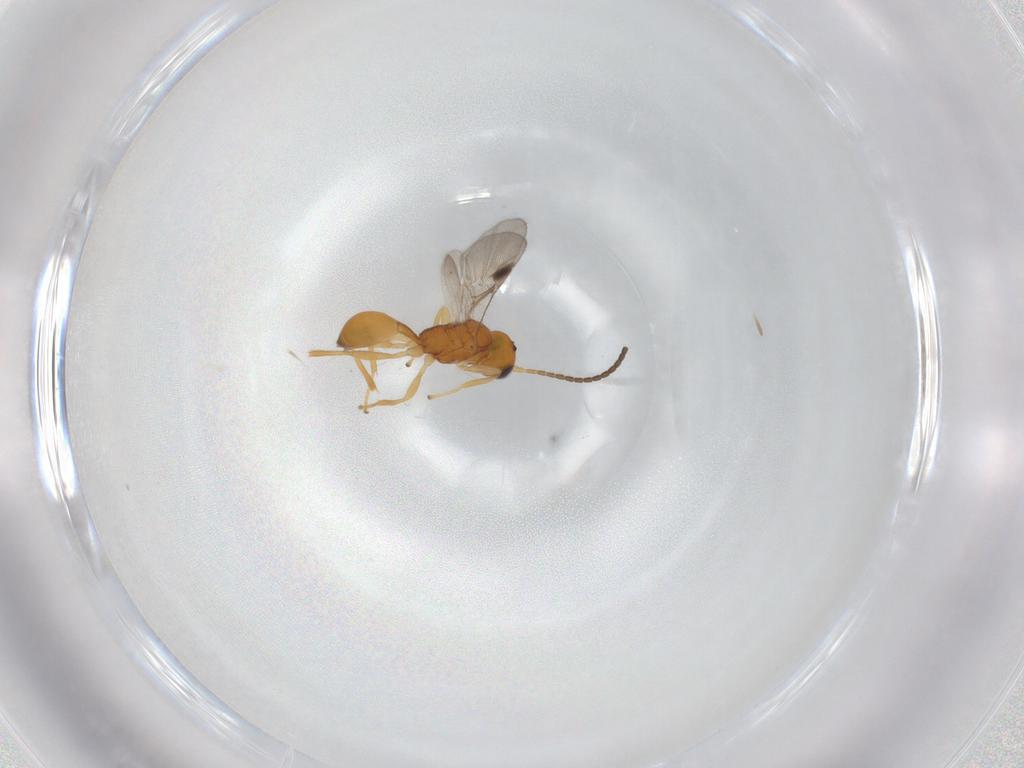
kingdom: Animalia
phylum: Arthropoda
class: Insecta
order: Hymenoptera
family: Braconidae
